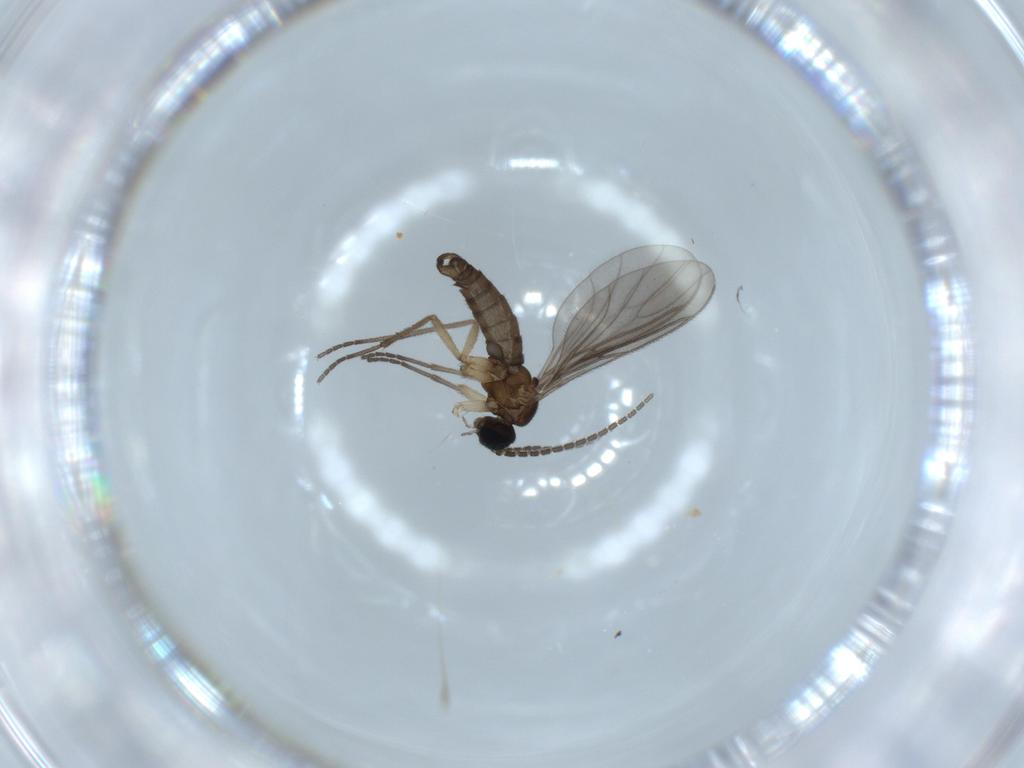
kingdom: Animalia
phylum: Arthropoda
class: Insecta
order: Diptera
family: Sciaridae
